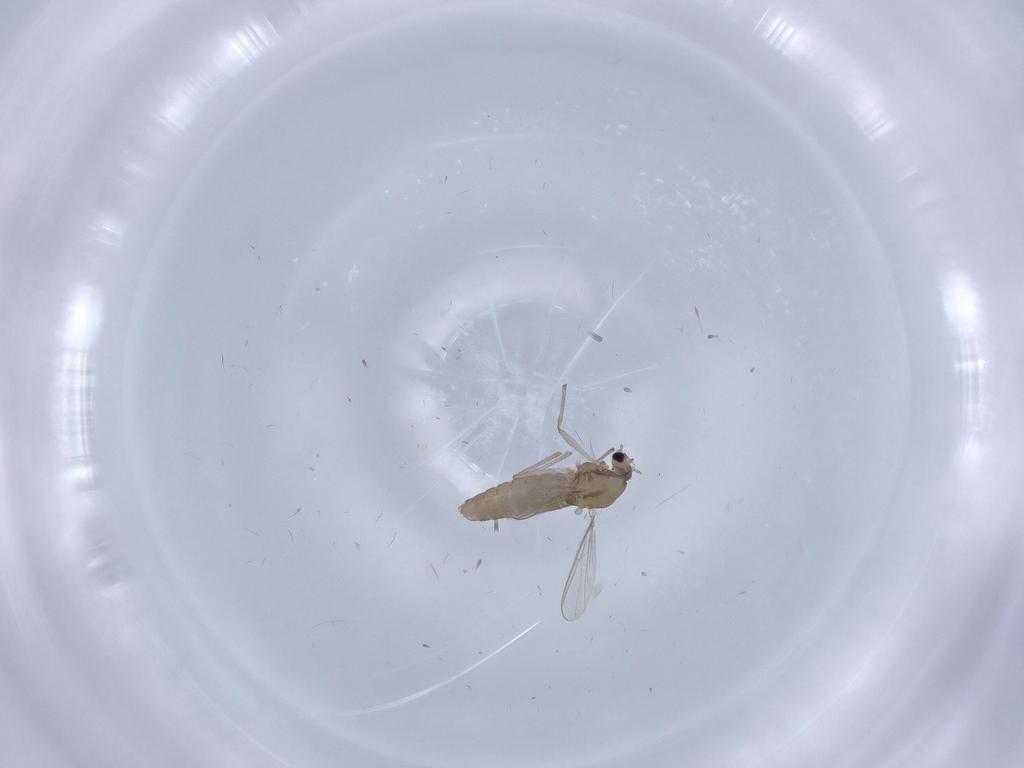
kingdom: Animalia
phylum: Arthropoda
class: Insecta
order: Diptera
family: Chironomidae
